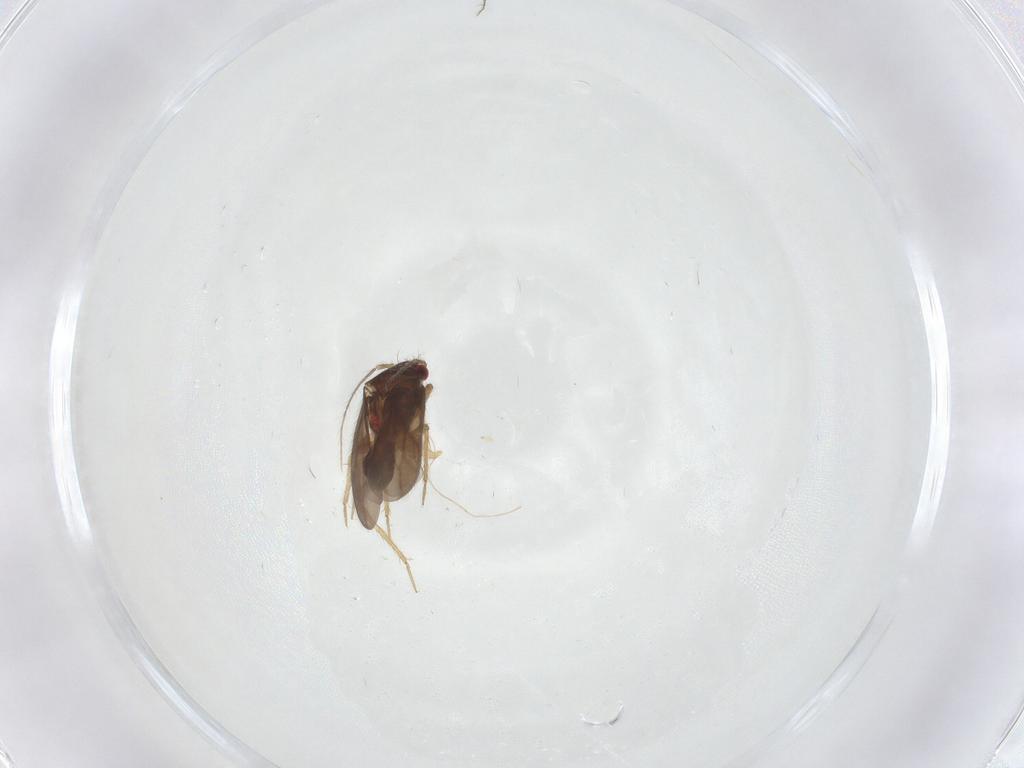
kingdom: Animalia
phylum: Arthropoda
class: Insecta
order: Hemiptera
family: Ceratocombidae
